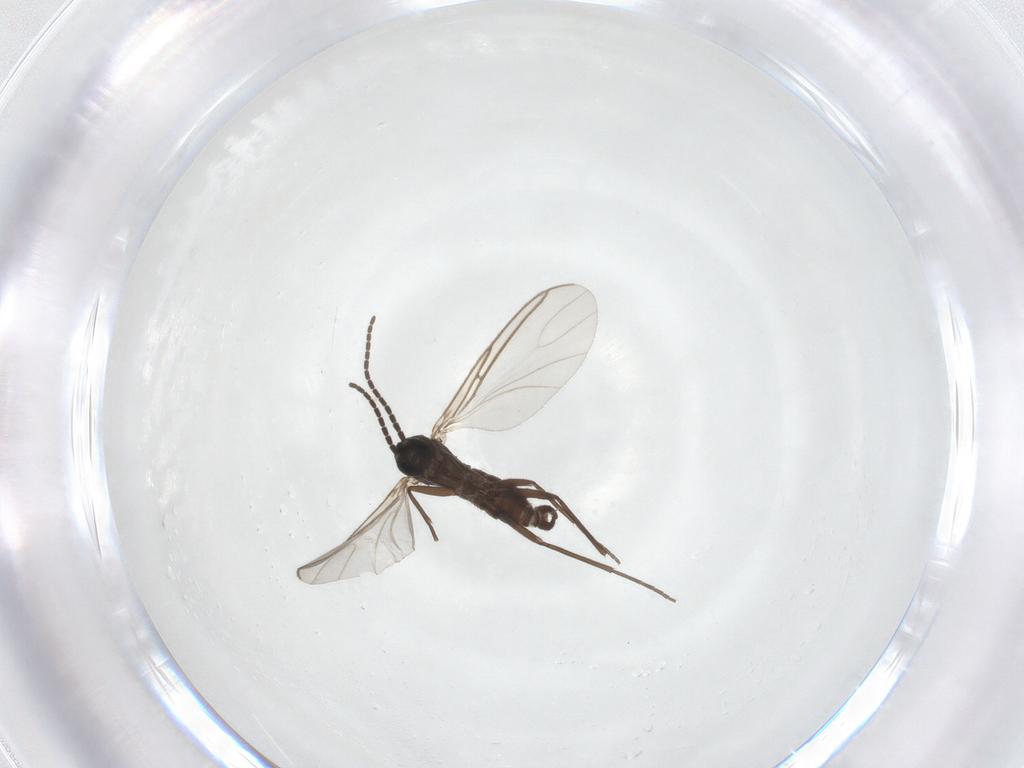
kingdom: Animalia
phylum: Arthropoda
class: Insecta
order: Diptera
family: Sciaridae
